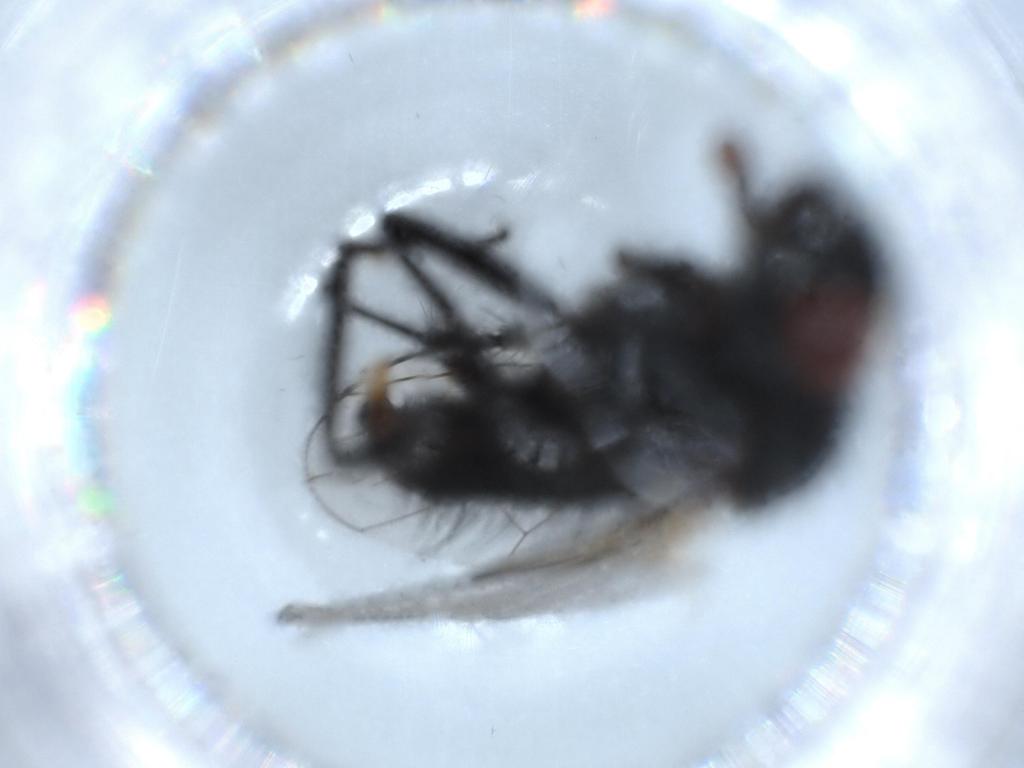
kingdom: Animalia
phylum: Arthropoda
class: Insecta
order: Diptera
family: Anthomyiidae
